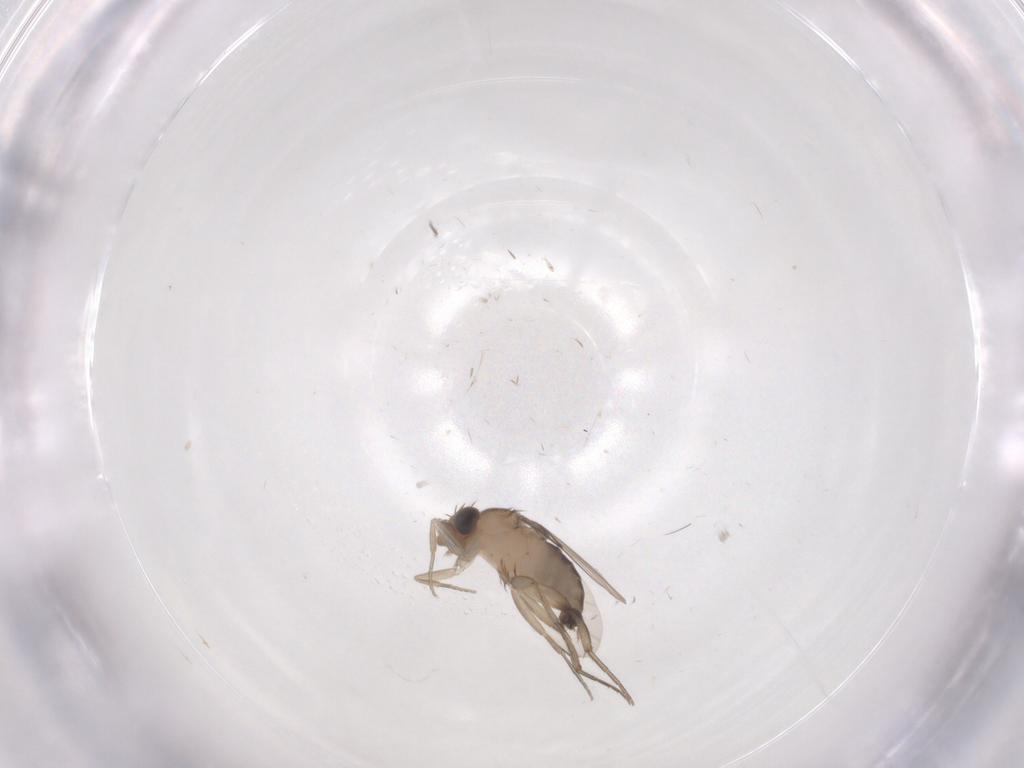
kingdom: Animalia
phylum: Arthropoda
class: Insecta
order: Diptera
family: Phoridae
